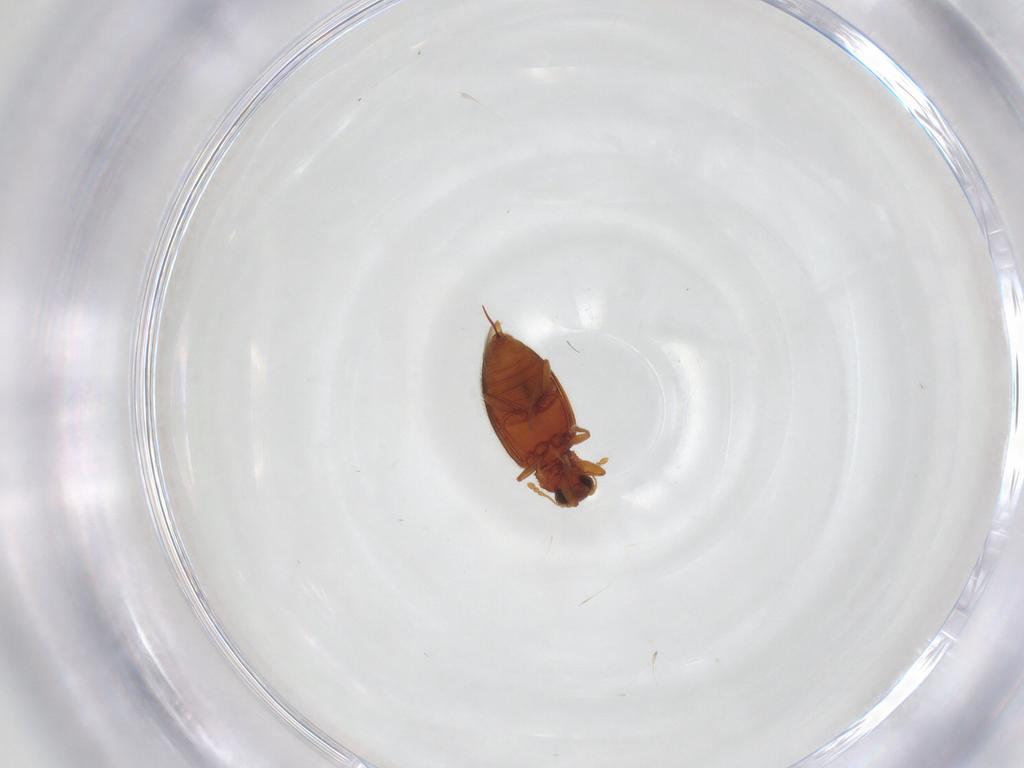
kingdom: Animalia
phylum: Arthropoda
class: Insecta
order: Coleoptera
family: Latridiidae
